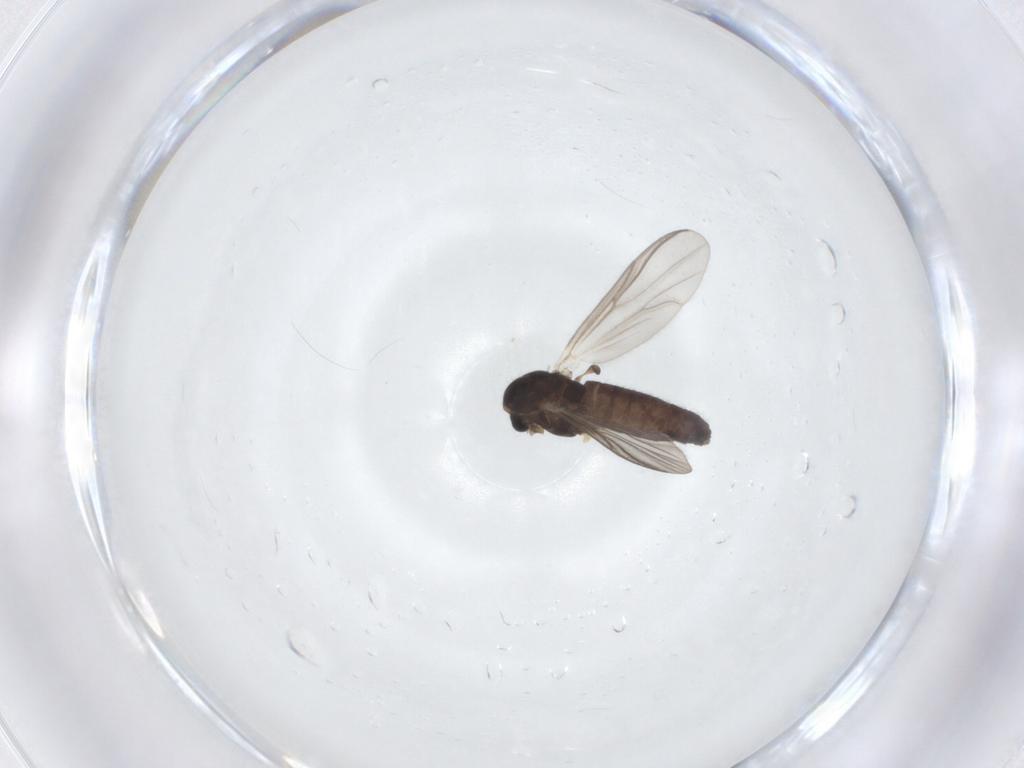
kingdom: Animalia
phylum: Arthropoda
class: Insecta
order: Diptera
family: Chironomidae
